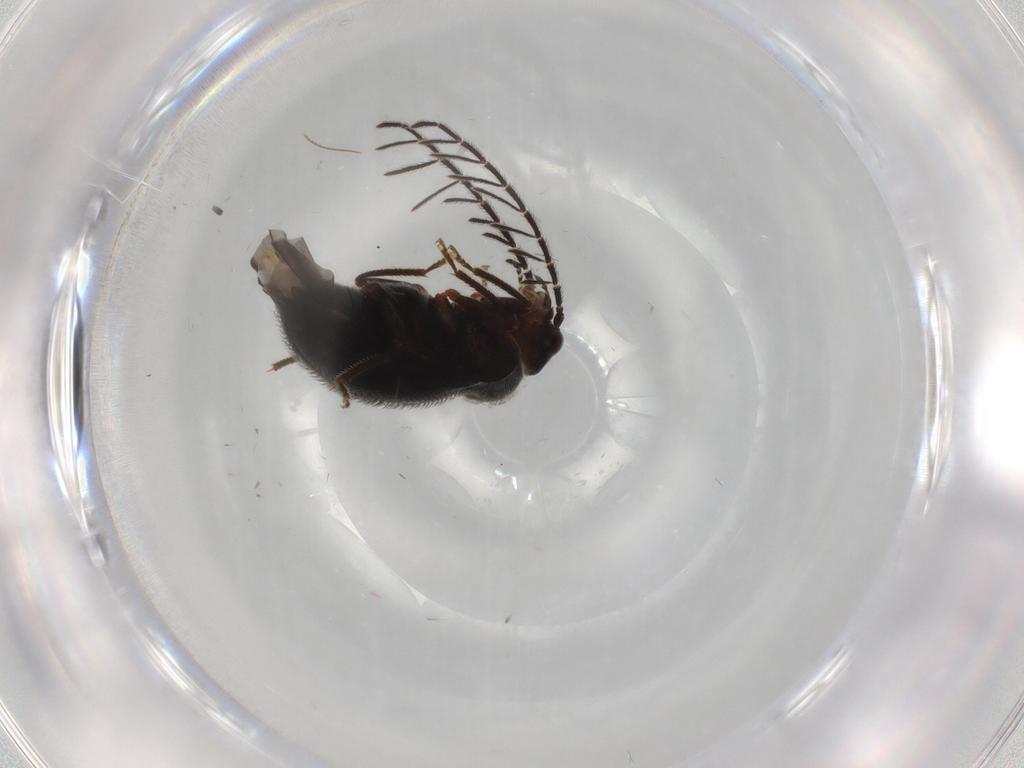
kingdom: Animalia
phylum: Arthropoda
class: Insecta
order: Coleoptera
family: Ptilodactylidae
